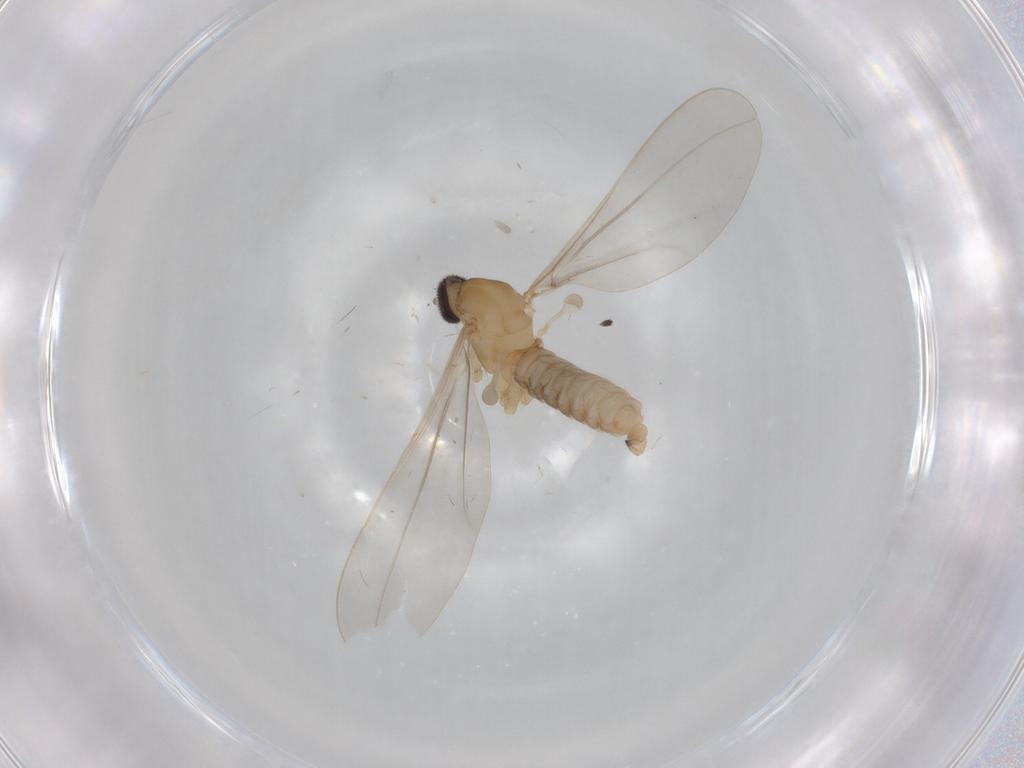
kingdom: Animalia
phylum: Arthropoda
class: Insecta
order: Diptera
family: Cecidomyiidae
